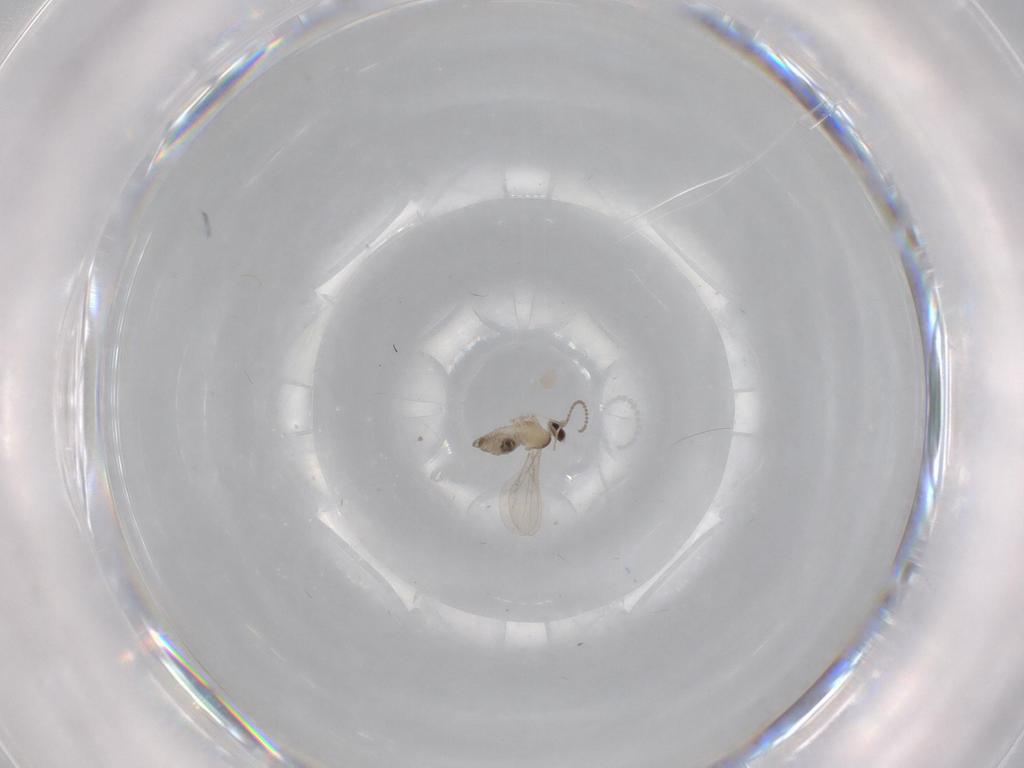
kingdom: Animalia
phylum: Arthropoda
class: Insecta
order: Diptera
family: Cecidomyiidae
